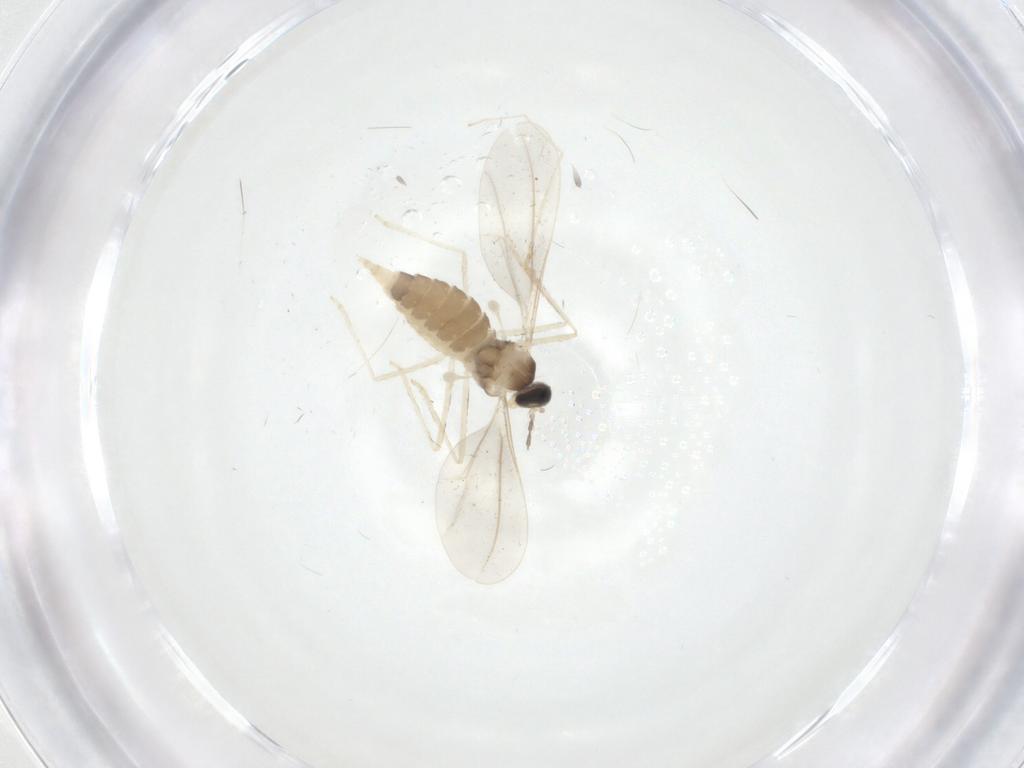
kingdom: Animalia
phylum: Arthropoda
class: Insecta
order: Diptera
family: Cecidomyiidae
